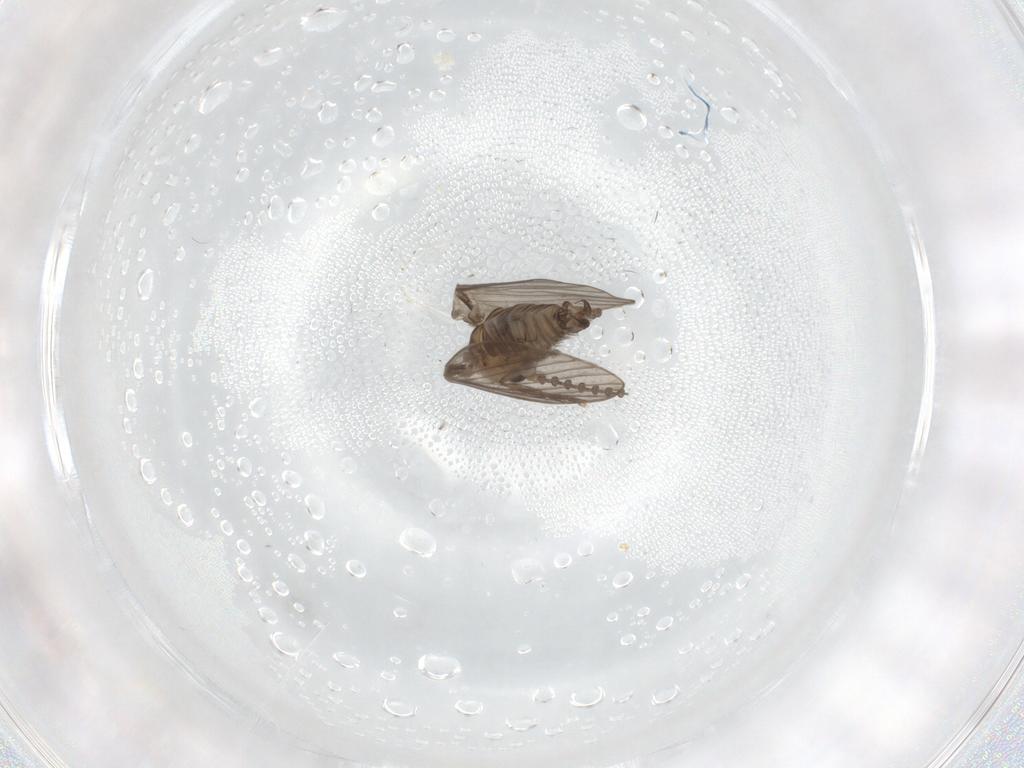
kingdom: Animalia
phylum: Arthropoda
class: Insecta
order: Diptera
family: Psychodidae
